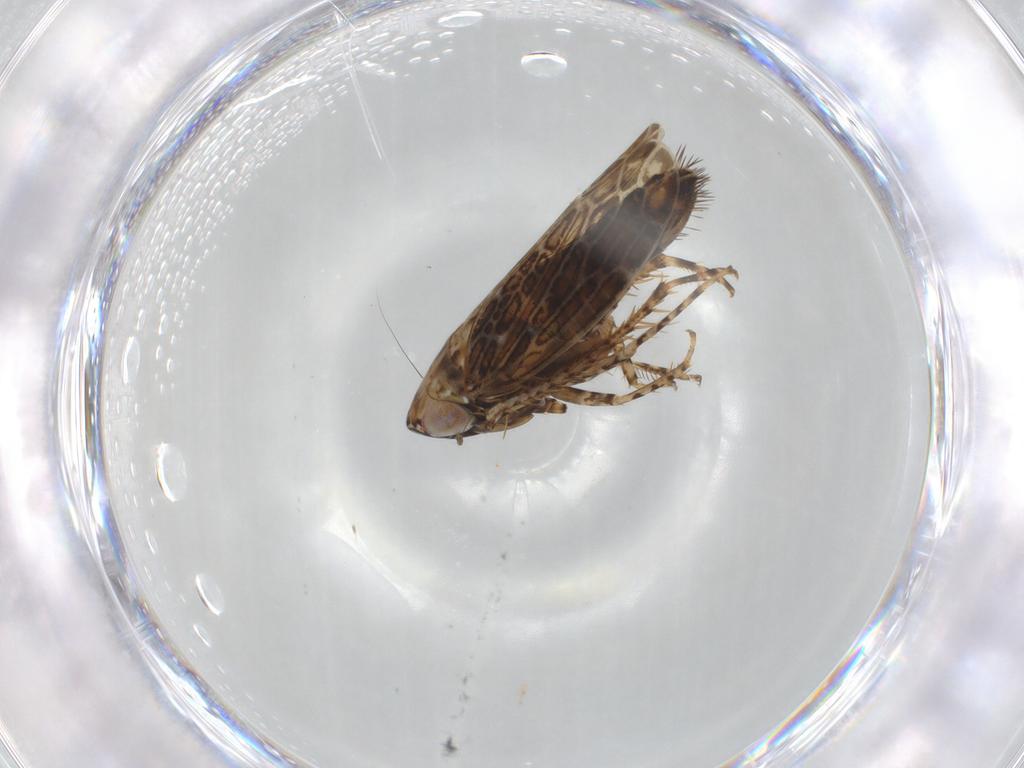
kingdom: Animalia
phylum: Arthropoda
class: Insecta
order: Hemiptera
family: Cicadellidae
